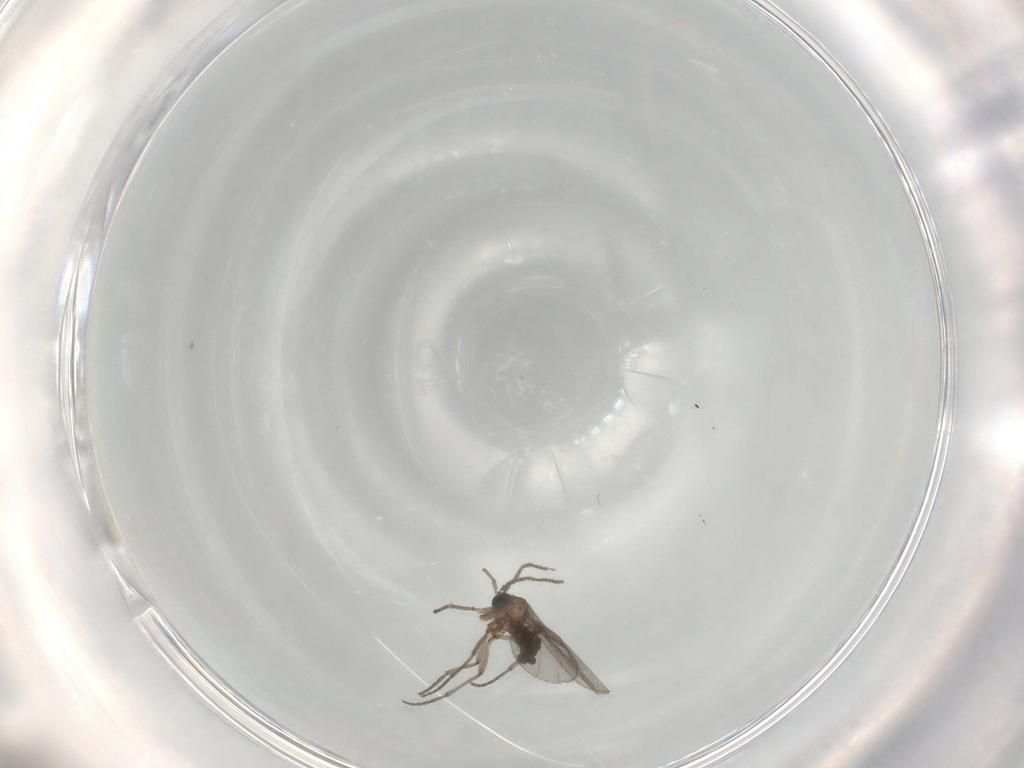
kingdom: Animalia
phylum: Arthropoda
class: Insecta
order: Diptera
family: Sciaridae
